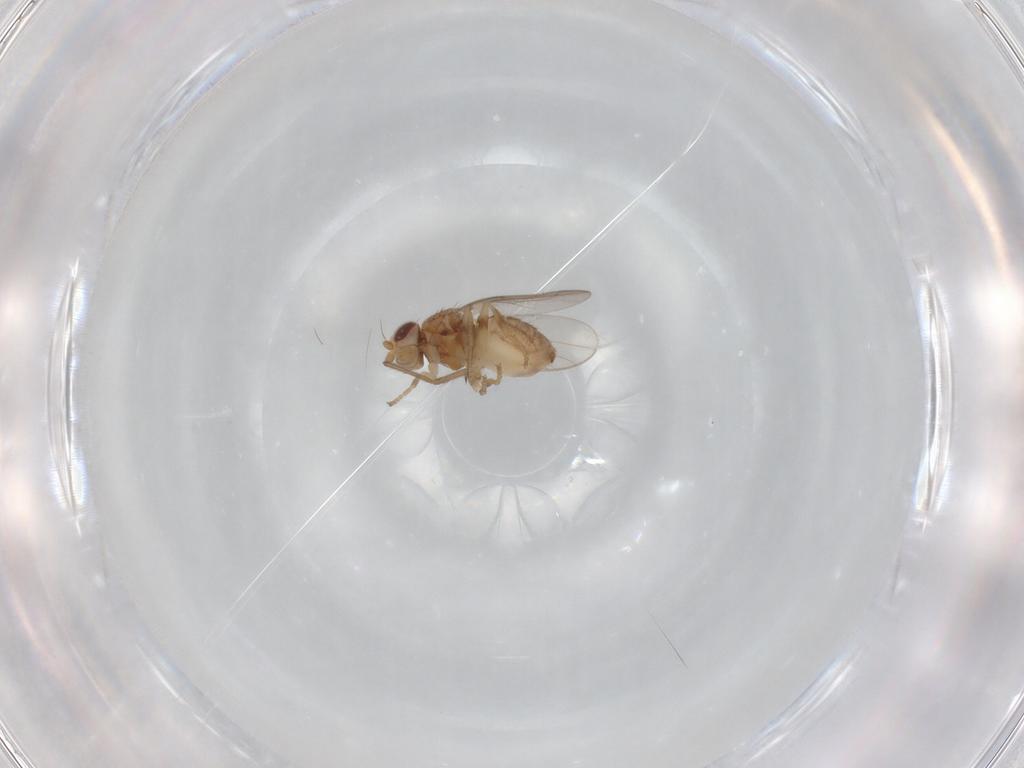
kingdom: Animalia
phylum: Arthropoda
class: Insecta
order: Diptera
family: Chloropidae
